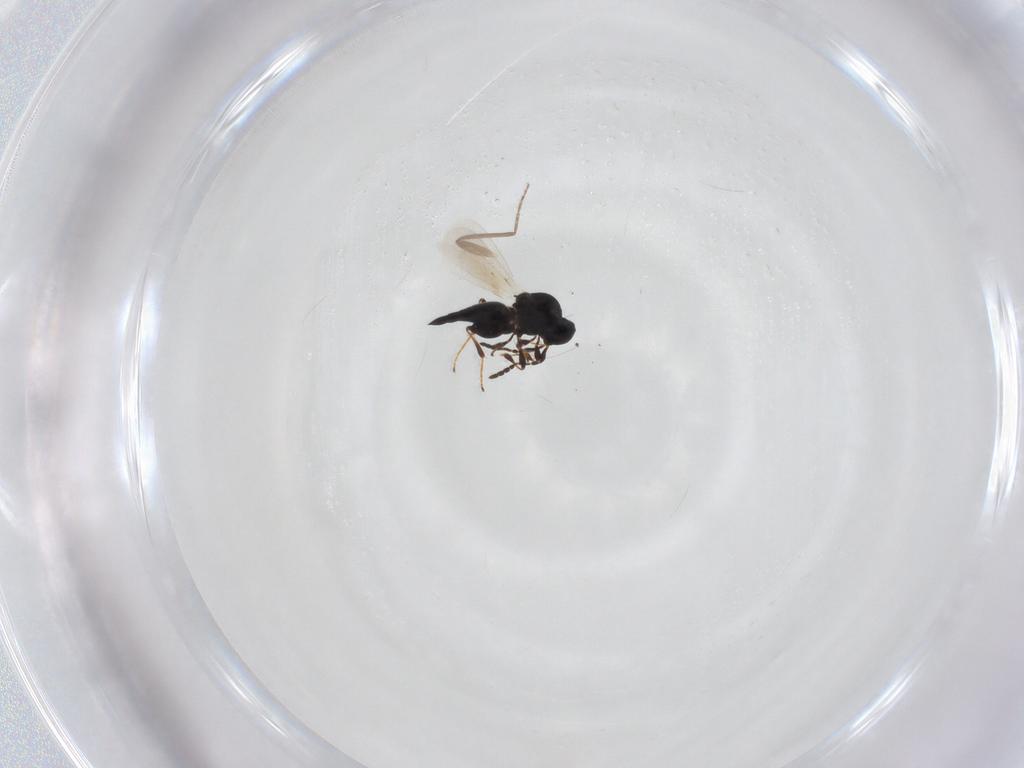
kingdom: Animalia
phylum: Arthropoda
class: Insecta
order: Hymenoptera
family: Platygastridae
